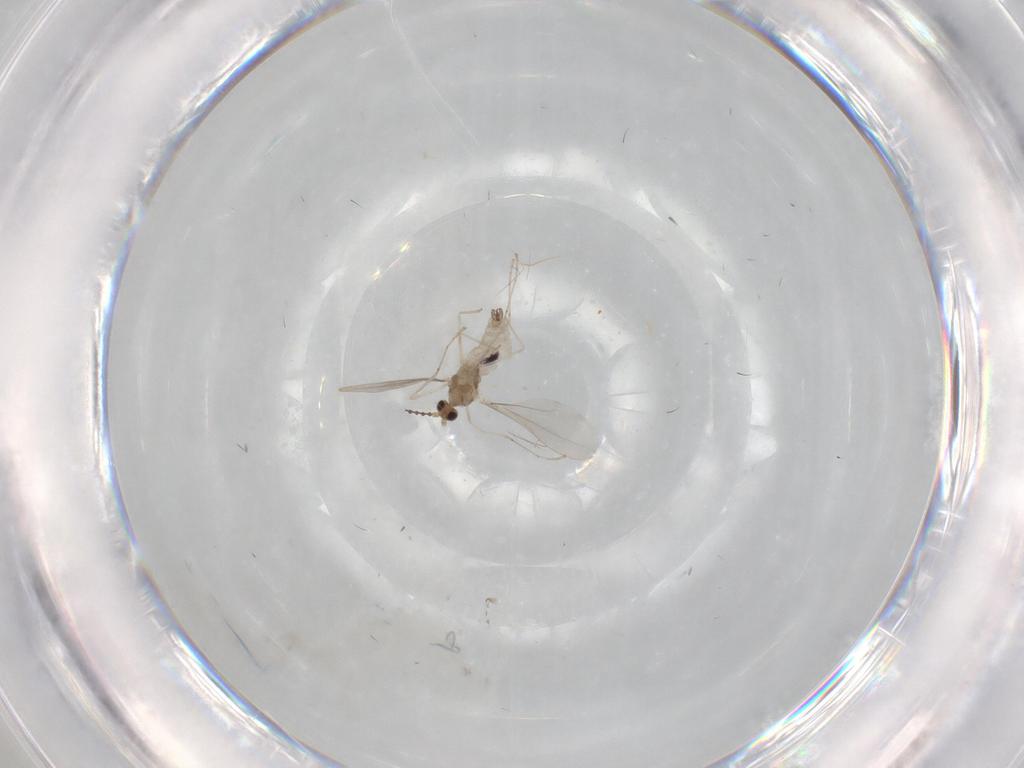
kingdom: Animalia
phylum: Arthropoda
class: Insecta
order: Diptera
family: Cecidomyiidae
